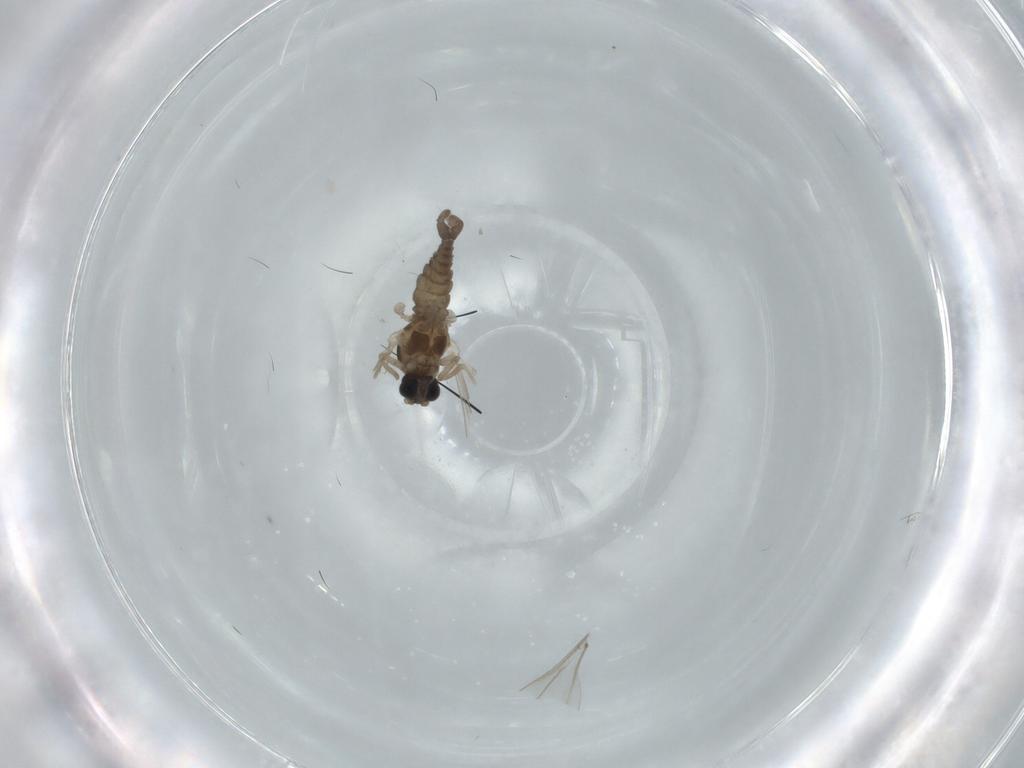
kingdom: Animalia
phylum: Arthropoda
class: Insecta
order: Diptera
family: Cecidomyiidae
